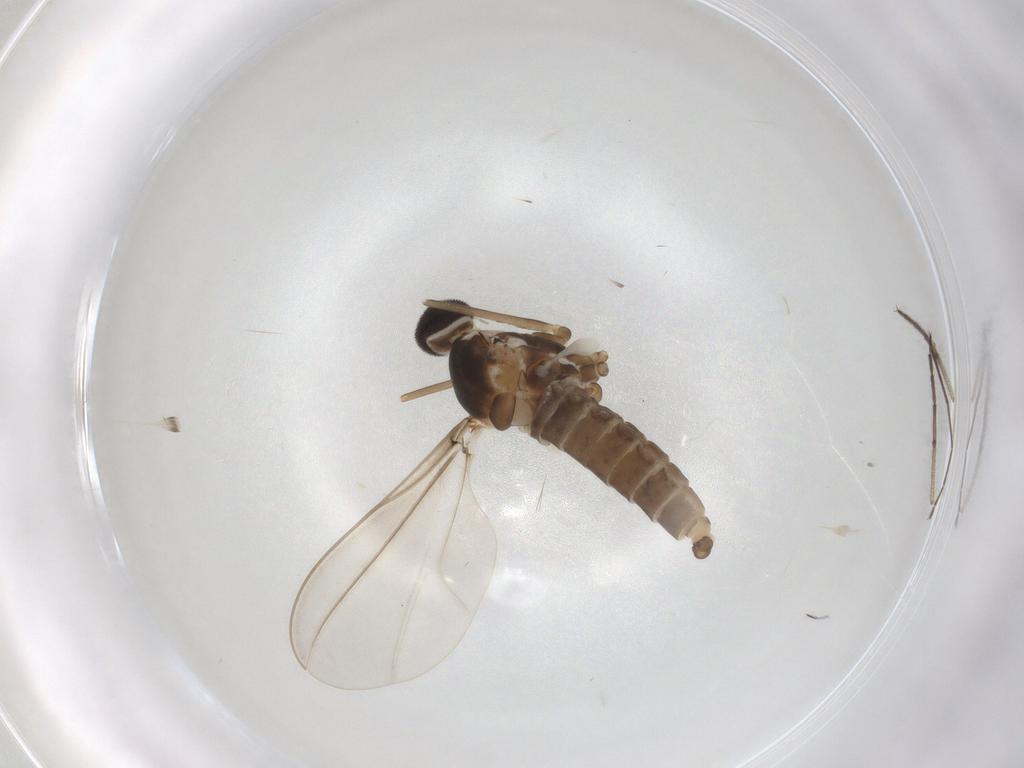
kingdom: Animalia
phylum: Arthropoda
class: Insecta
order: Diptera
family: Cecidomyiidae
